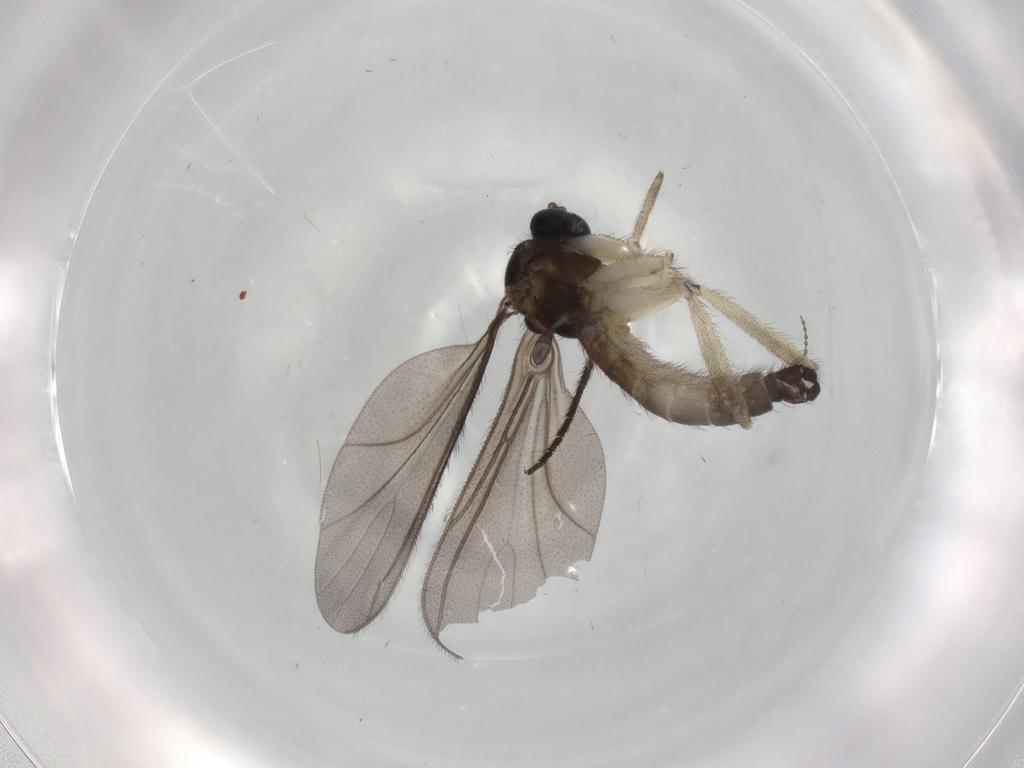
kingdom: Animalia
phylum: Arthropoda
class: Insecta
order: Diptera
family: Sciaridae
